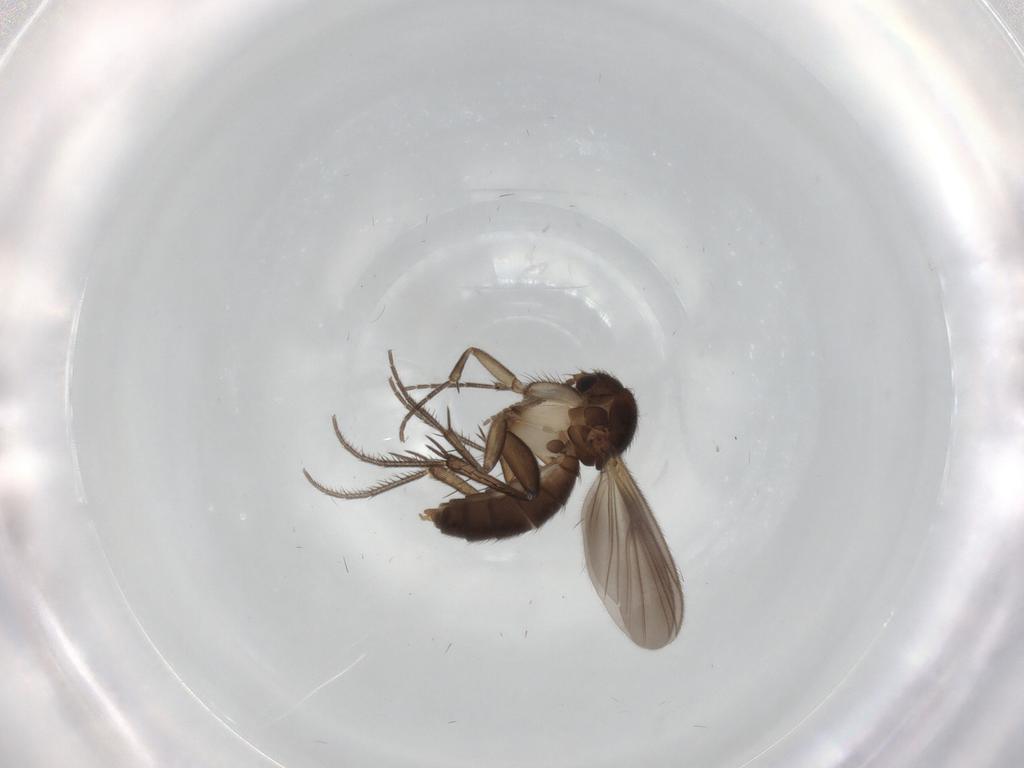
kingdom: Animalia
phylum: Arthropoda
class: Insecta
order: Diptera
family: Mycetophilidae
